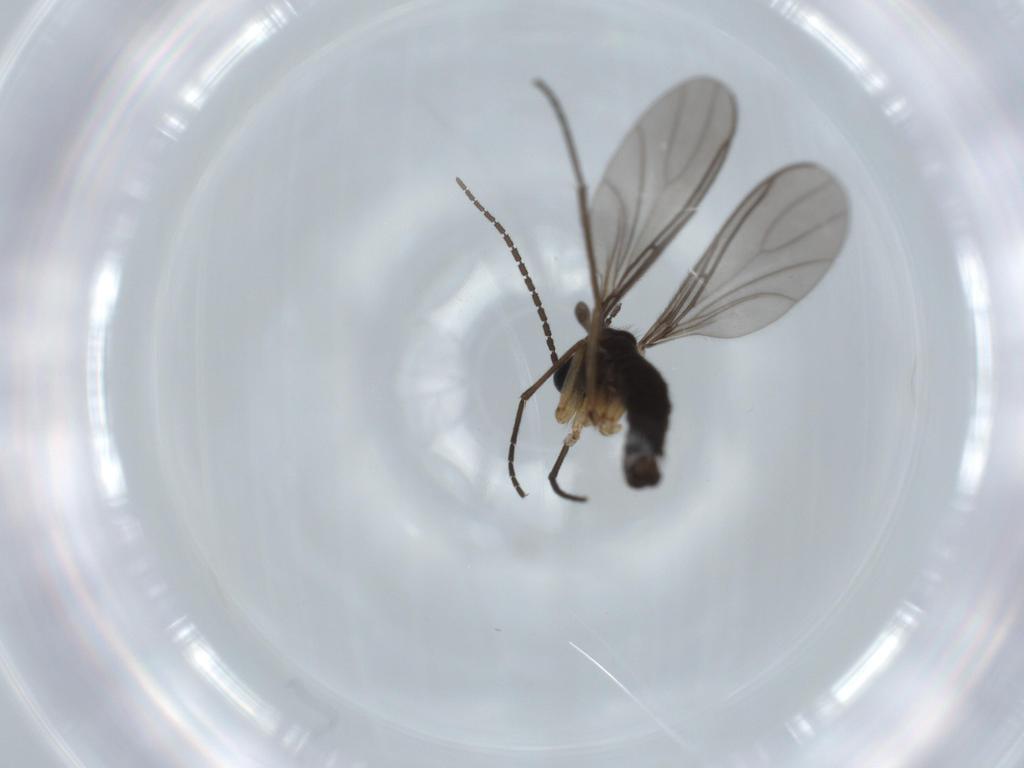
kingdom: Animalia
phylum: Arthropoda
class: Insecta
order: Diptera
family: Sciaridae
